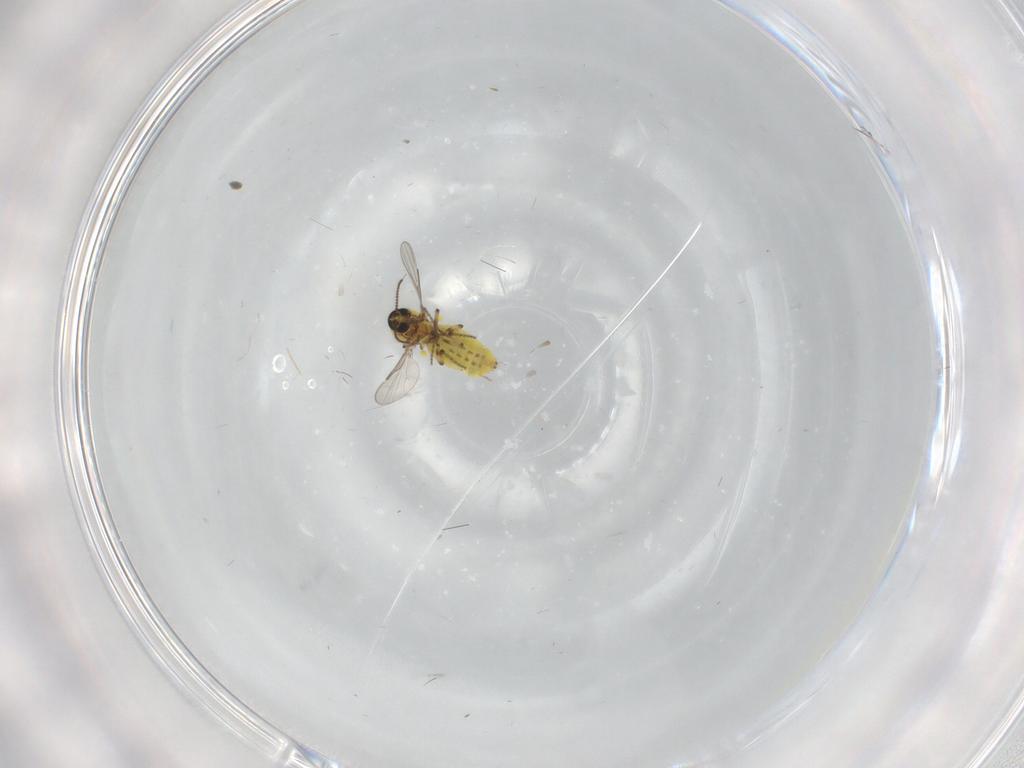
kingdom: Animalia
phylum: Arthropoda
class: Insecta
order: Diptera
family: Ceratopogonidae
